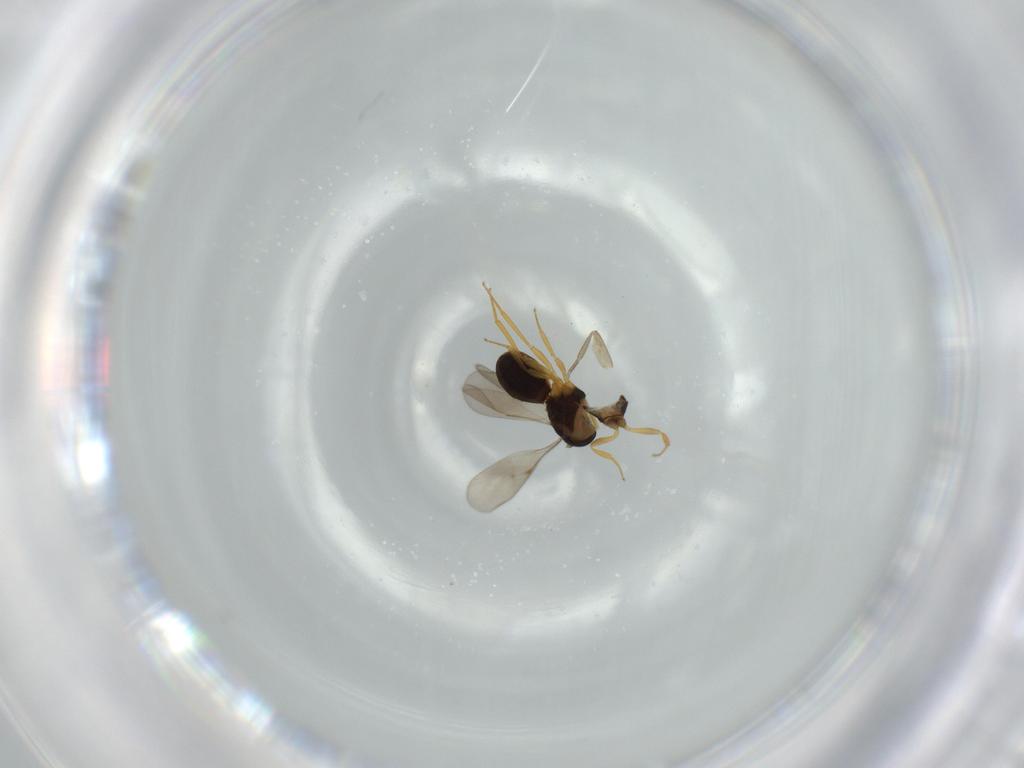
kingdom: Animalia
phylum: Arthropoda
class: Insecta
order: Hymenoptera
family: Scelionidae
